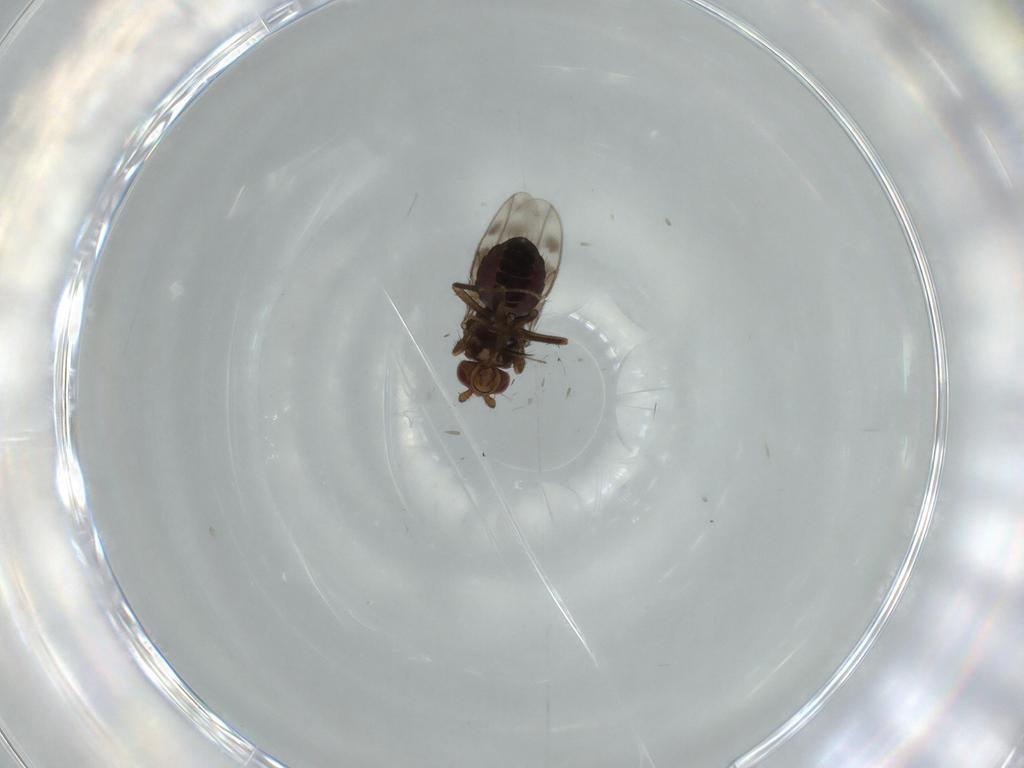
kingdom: Animalia
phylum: Arthropoda
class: Insecta
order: Diptera
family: Sphaeroceridae
